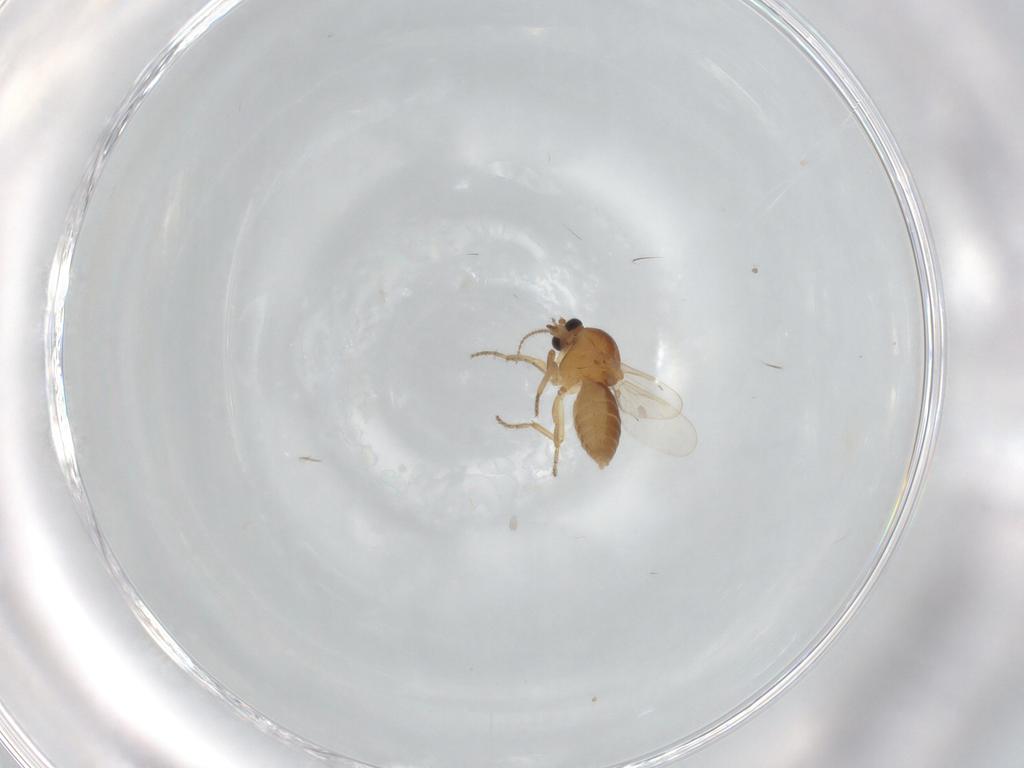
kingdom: Animalia
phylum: Arthropoda
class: Insecta
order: Diptera
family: Ceratopogonidae
